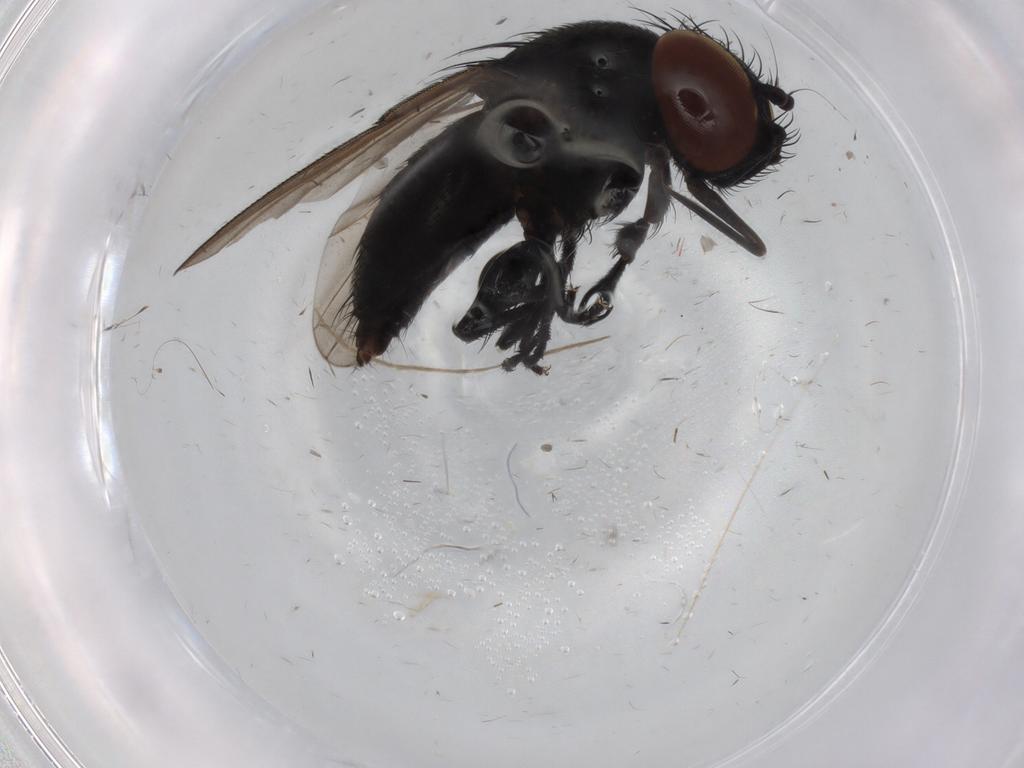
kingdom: Animalia
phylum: Arthropoda
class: Insecta
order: Diptera
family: Milichiidae
